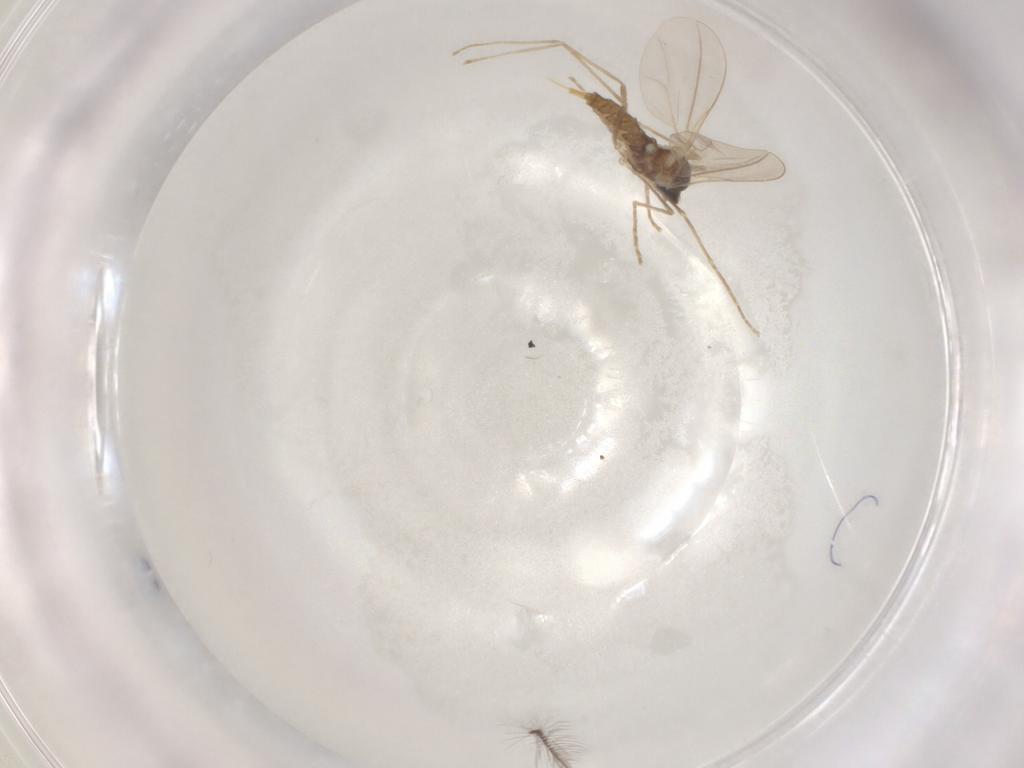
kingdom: Animalia
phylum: Arthropoda
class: Insecta
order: Diptera
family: Cecidomyiidae
